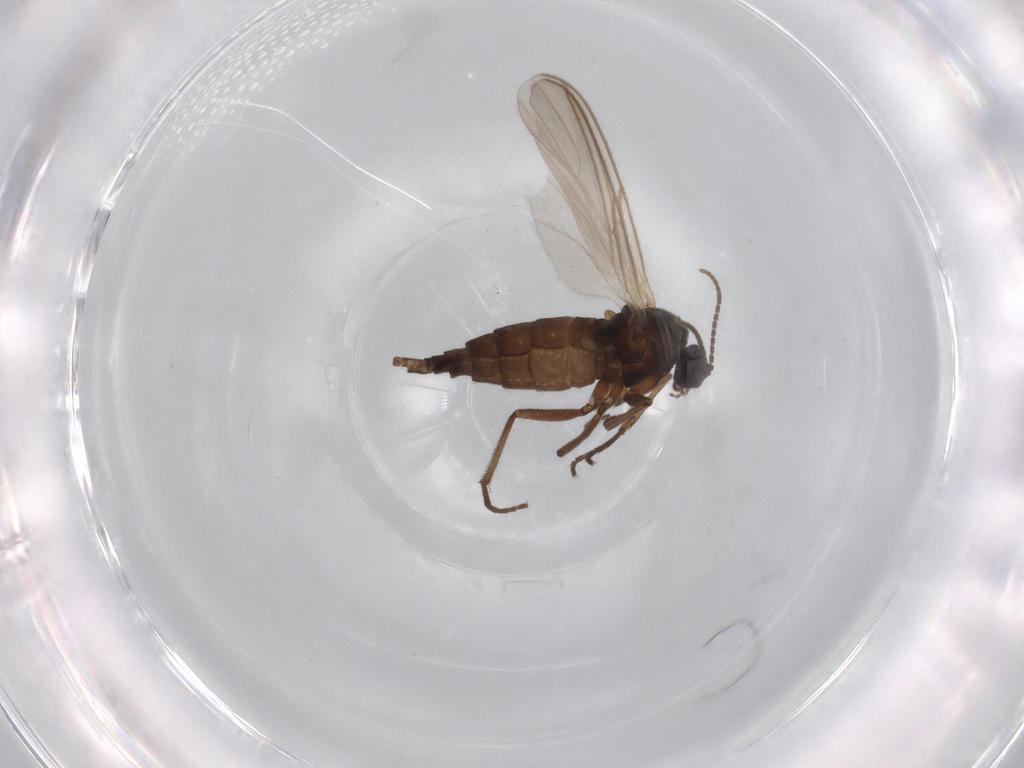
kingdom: Animalia
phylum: Arthropoda
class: Insecta
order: Diptera
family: Sciaridae
